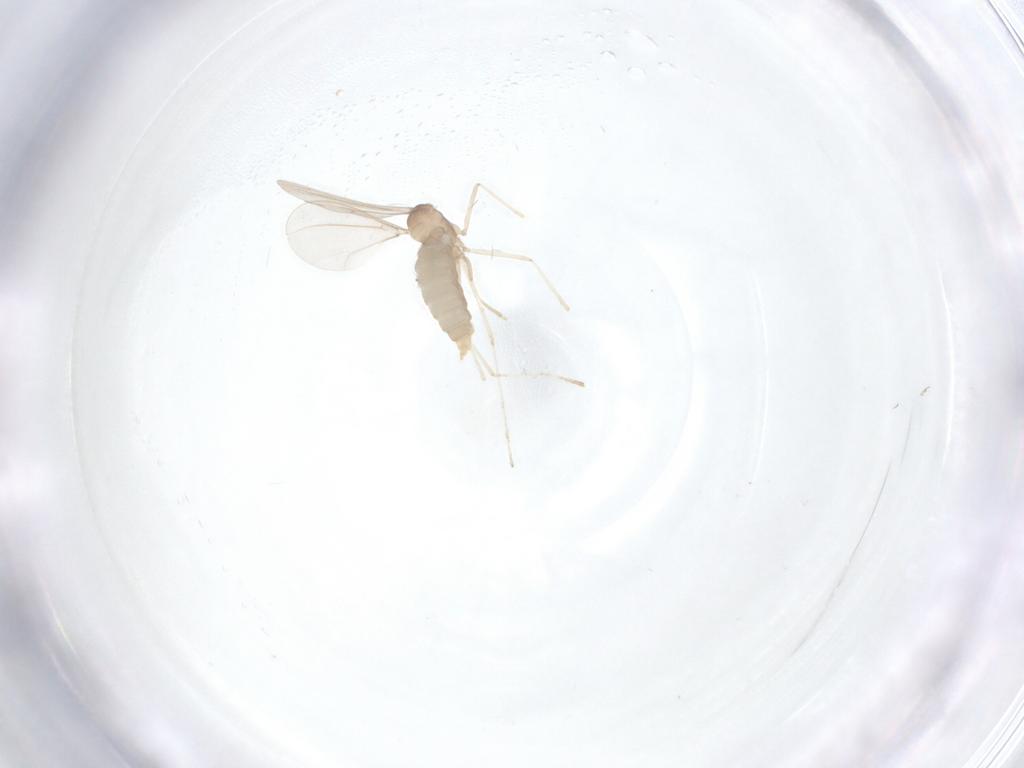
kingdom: Animalia
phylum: Arthropoda
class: Insecta
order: Diptera
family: Cecidomyiidae
